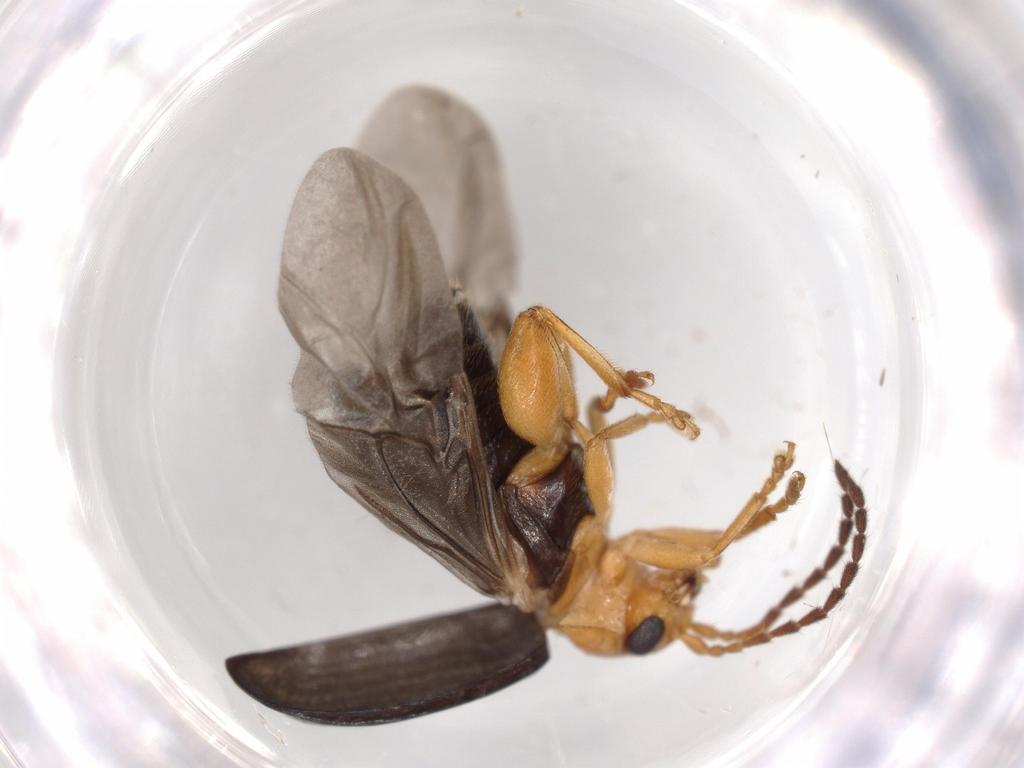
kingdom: Animalia
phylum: Arthropoda
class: Insecta
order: Coleoptera
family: Chrysomelidae
